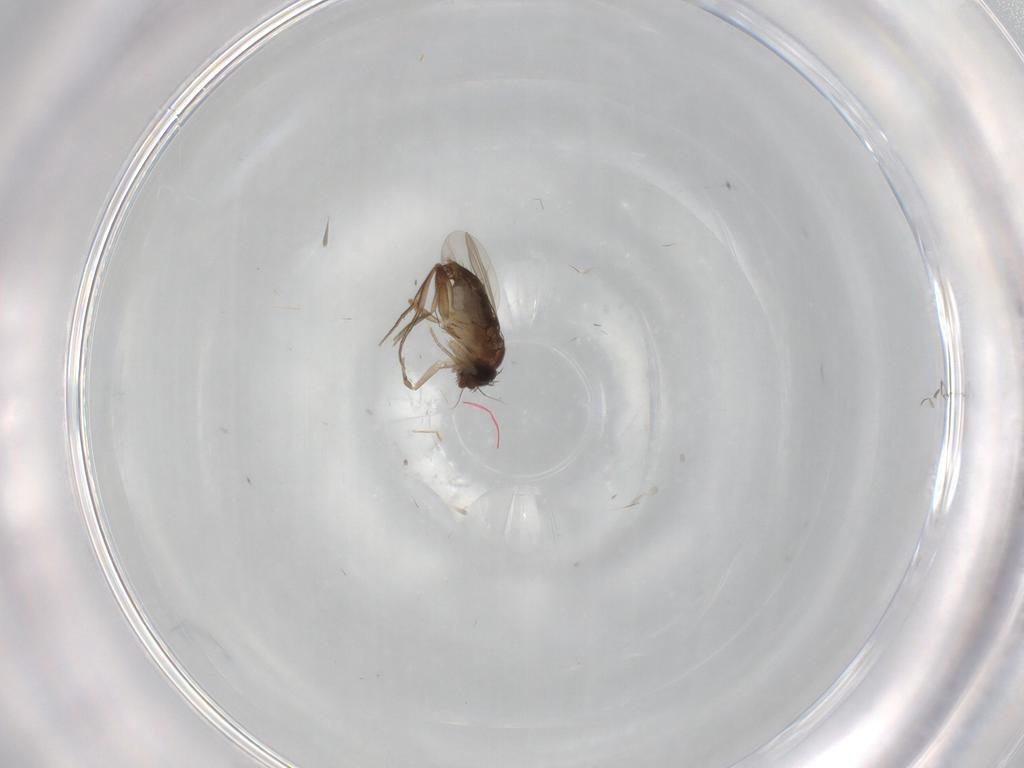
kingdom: Animalia
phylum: Arthropoda
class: Insecta
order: Diptera
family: Phoridae
